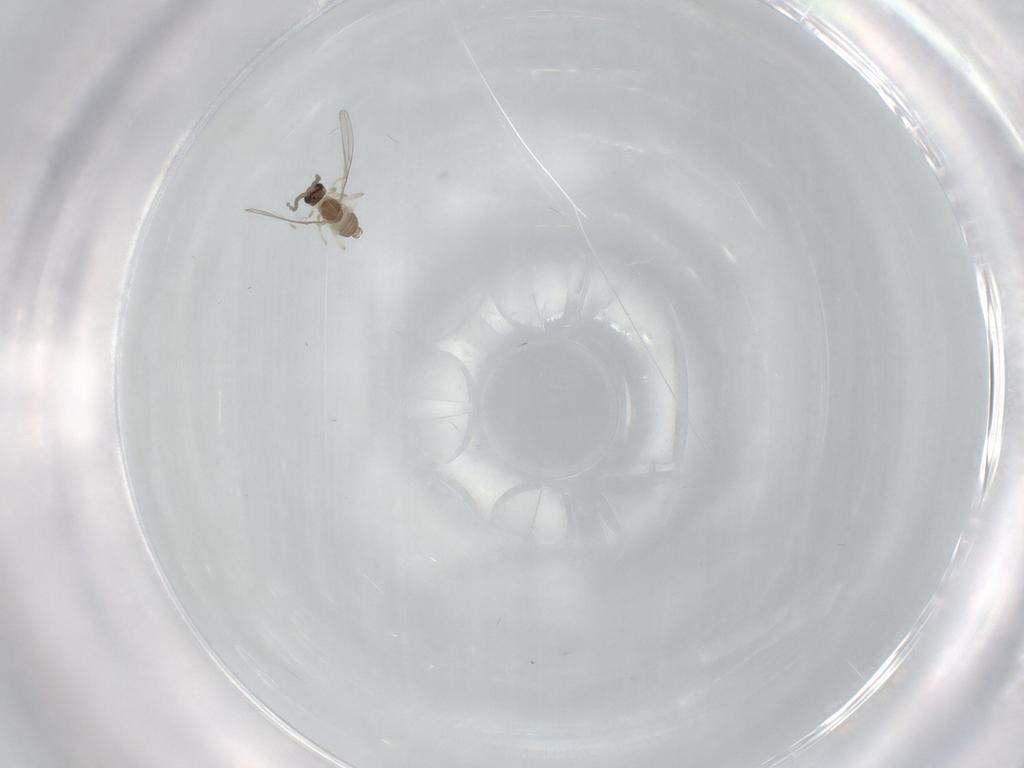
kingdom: Animalia
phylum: Arthropoda
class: Insecta
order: Diptera
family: Cecidomyiidae
